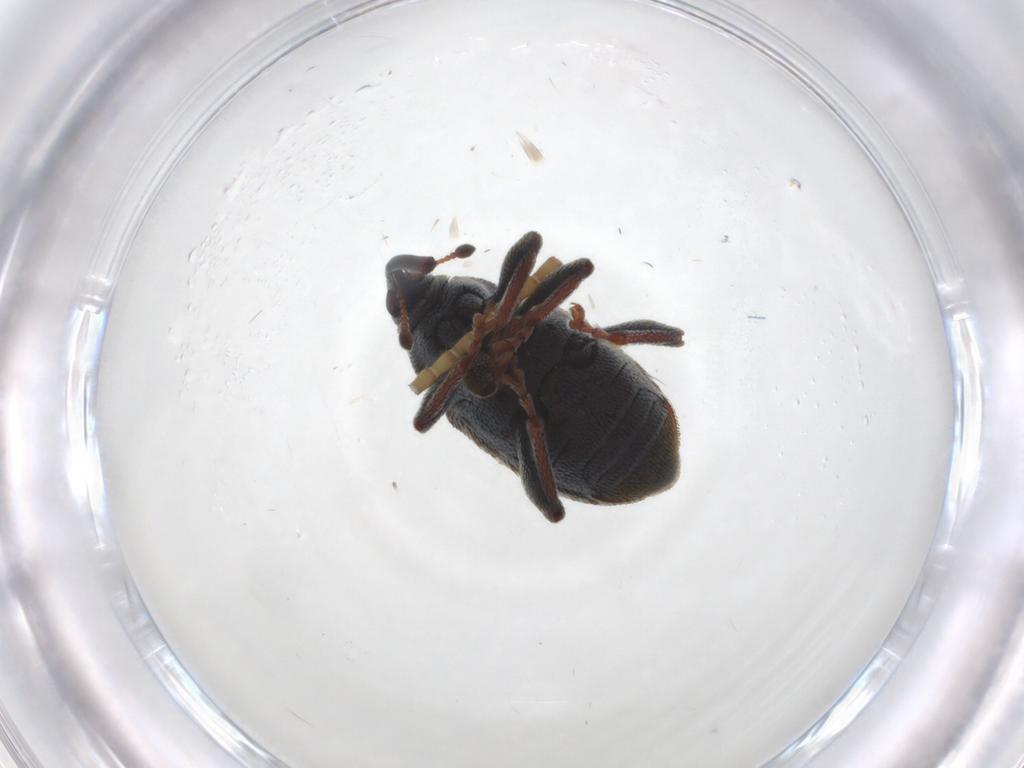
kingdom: Animalia
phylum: Arthropoda
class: Insecta
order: Coleoptera
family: Curculionidae
